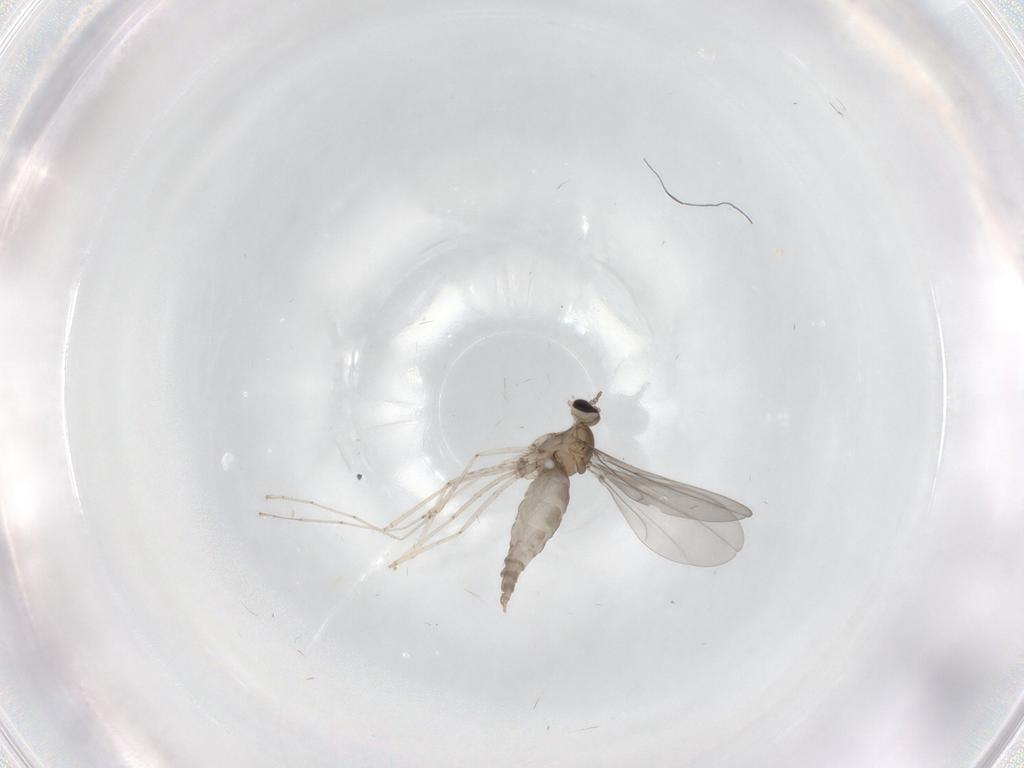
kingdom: Animalia
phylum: Arthropoda
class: Insecta
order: Diptera
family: Cecidomyiidae
